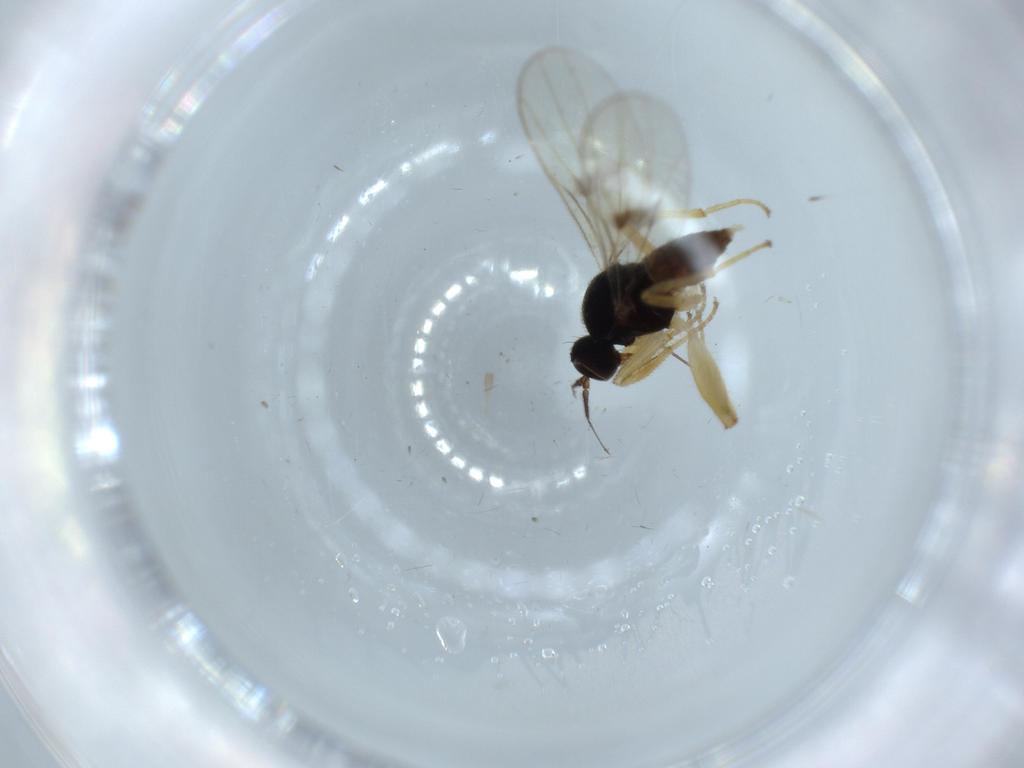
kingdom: Animalia
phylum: Arthropoda
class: Insecta
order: Diptera
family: Hybotidae
